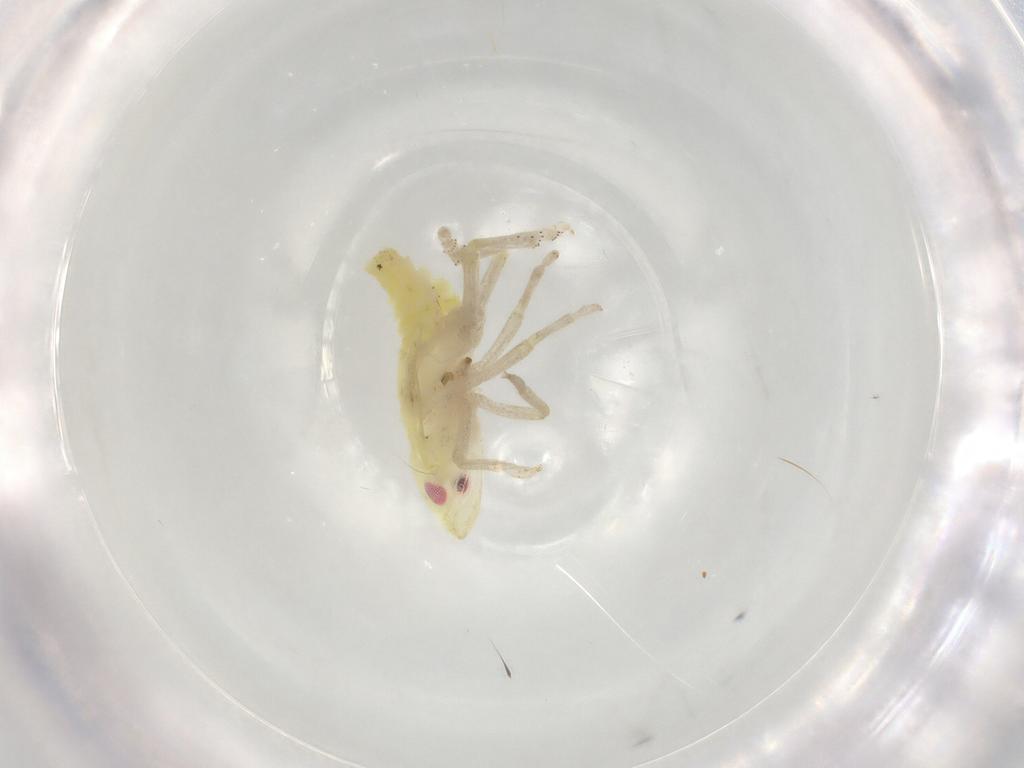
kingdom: Animalia
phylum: Arthropoda
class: Insecta
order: Hemiptera
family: Tropiduchidae
